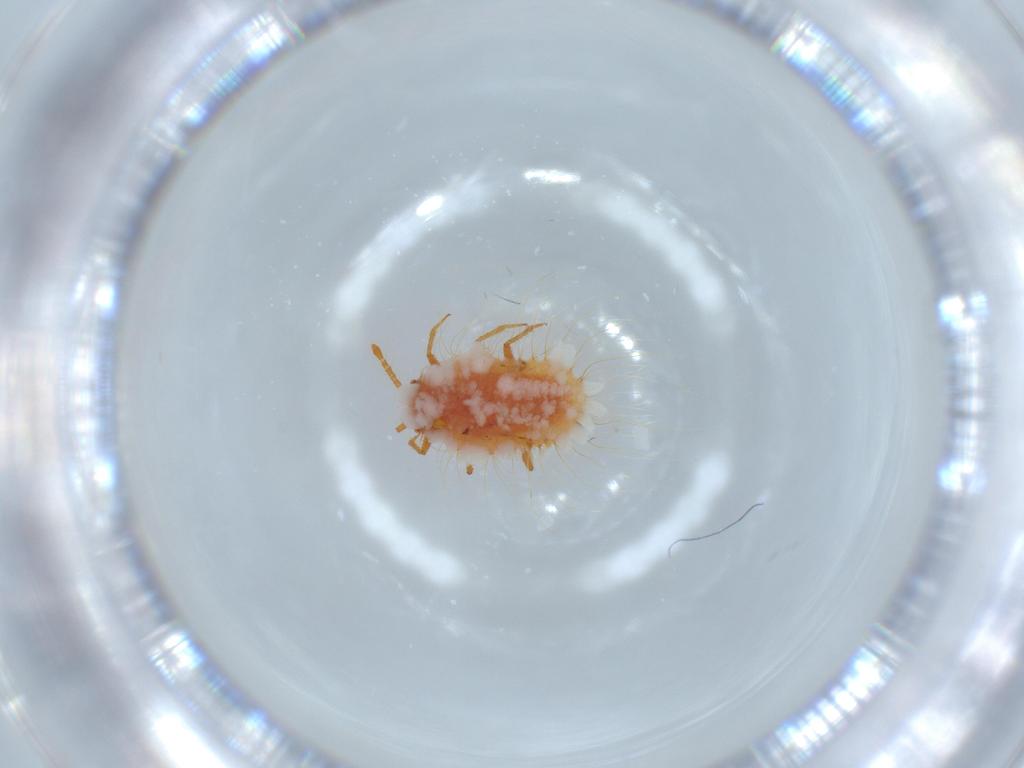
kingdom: Animalia
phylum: Arthropoda
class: Insecta
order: Hemiptera
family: Coccoidea_incertae_sedis
